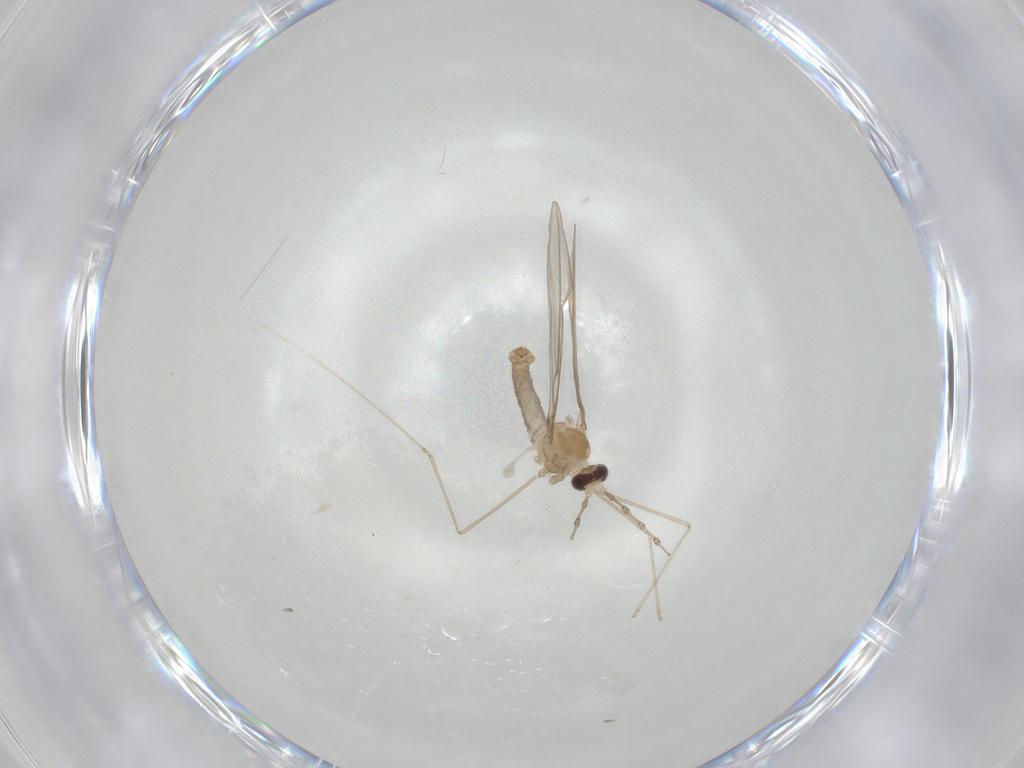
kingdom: Animalia
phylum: Arthropoda
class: Insecta
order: Diptera
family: Cecidomyiidae
